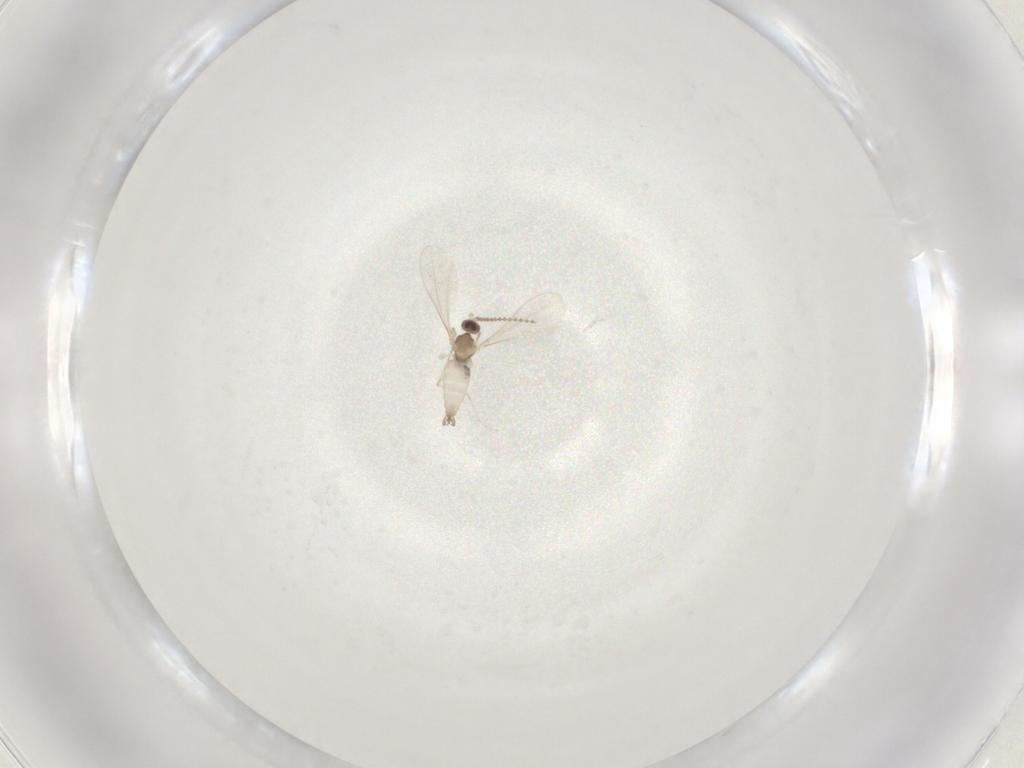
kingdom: Animalia
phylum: Arthropoda
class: Insecta
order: Diptera
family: Cecidomyiidae
